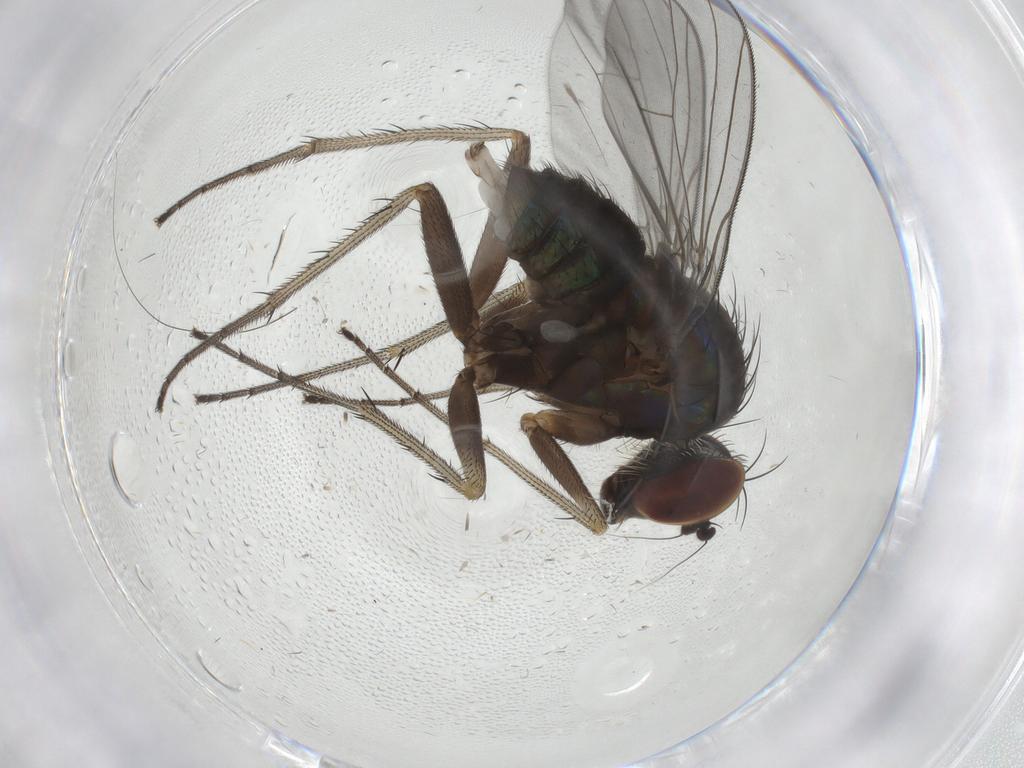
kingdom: Animalia
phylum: Arthropoda
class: Insecta
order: Diptera
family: Dolichopodidae
